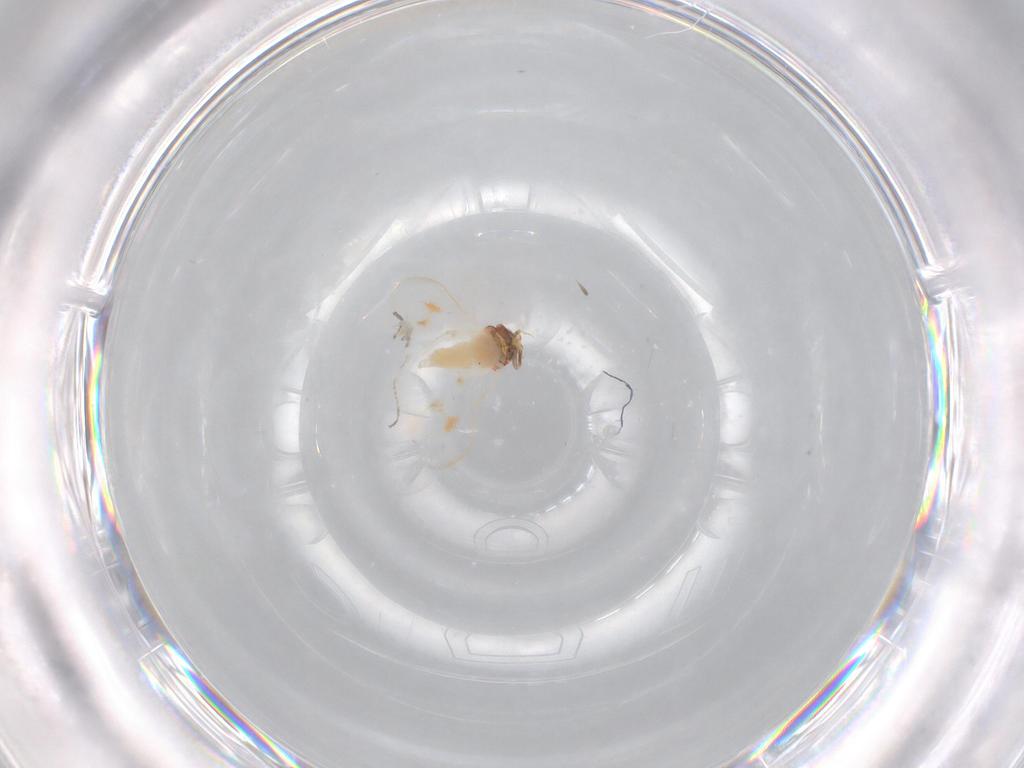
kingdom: Animalia
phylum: Arthropoda
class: Insecta
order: Hemiptera
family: Aleyrodidae
